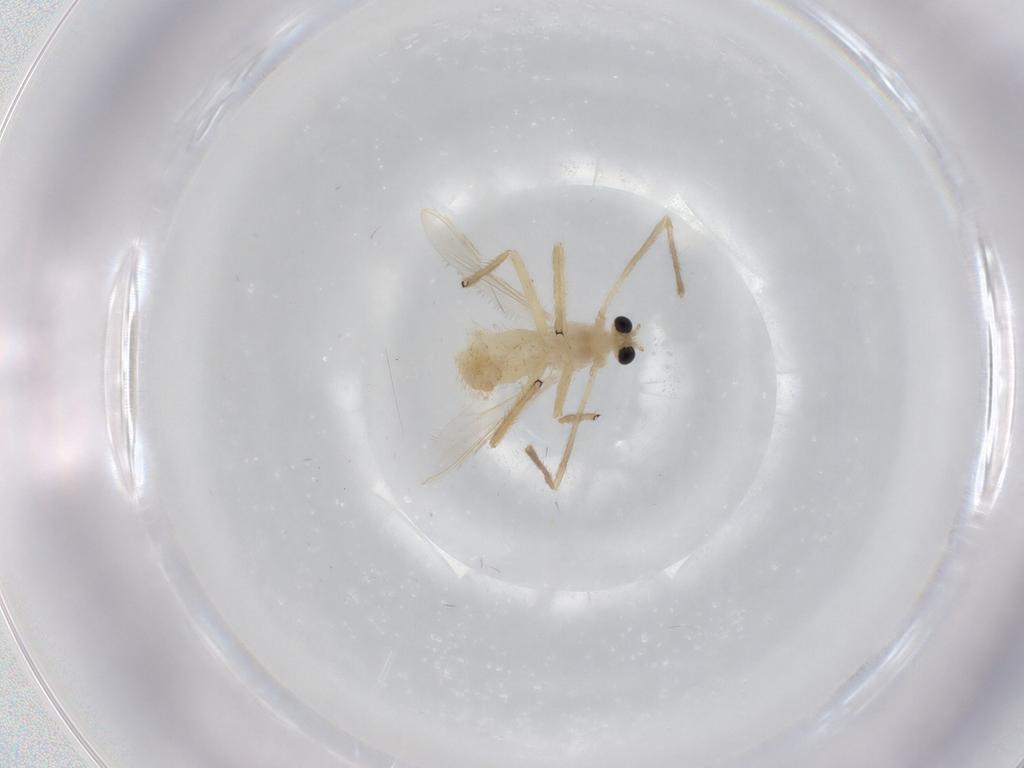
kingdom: Animalia
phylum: Arthropoda
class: Insecta
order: Diptera
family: Chironomidae
